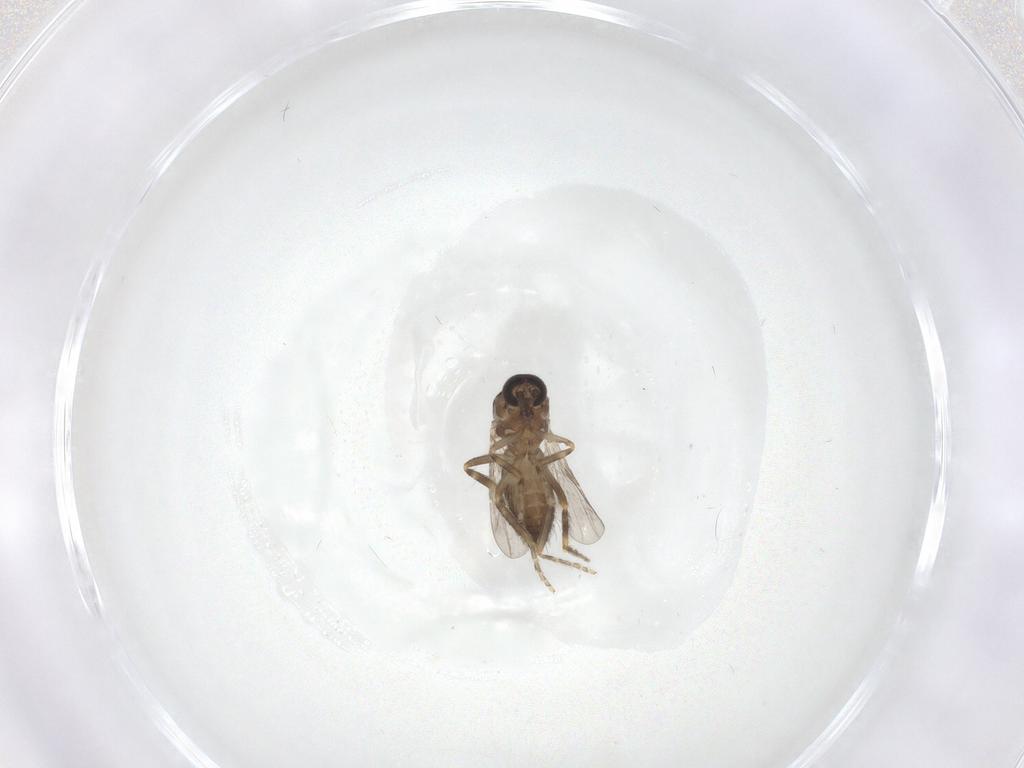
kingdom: Animalia
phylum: Arthropoda
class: Insecta
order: Diptera
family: Ceratopogonidae
